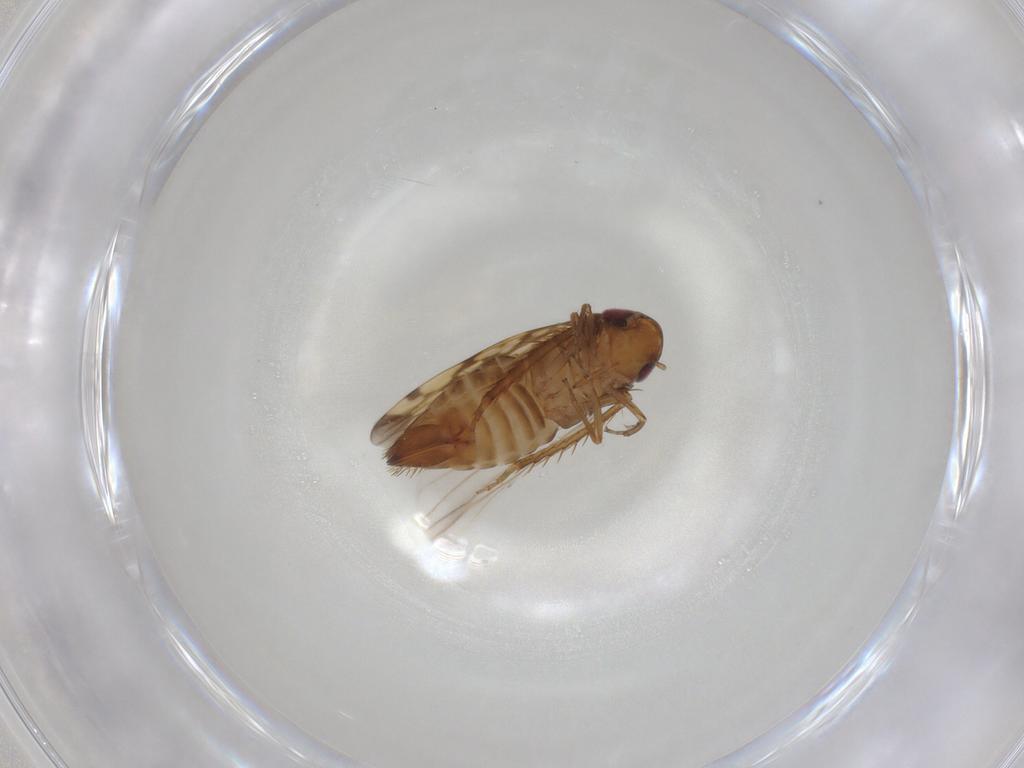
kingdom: Animalia
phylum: Arthropoda
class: Insecta
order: Hemiptera
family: Cicadellidae
